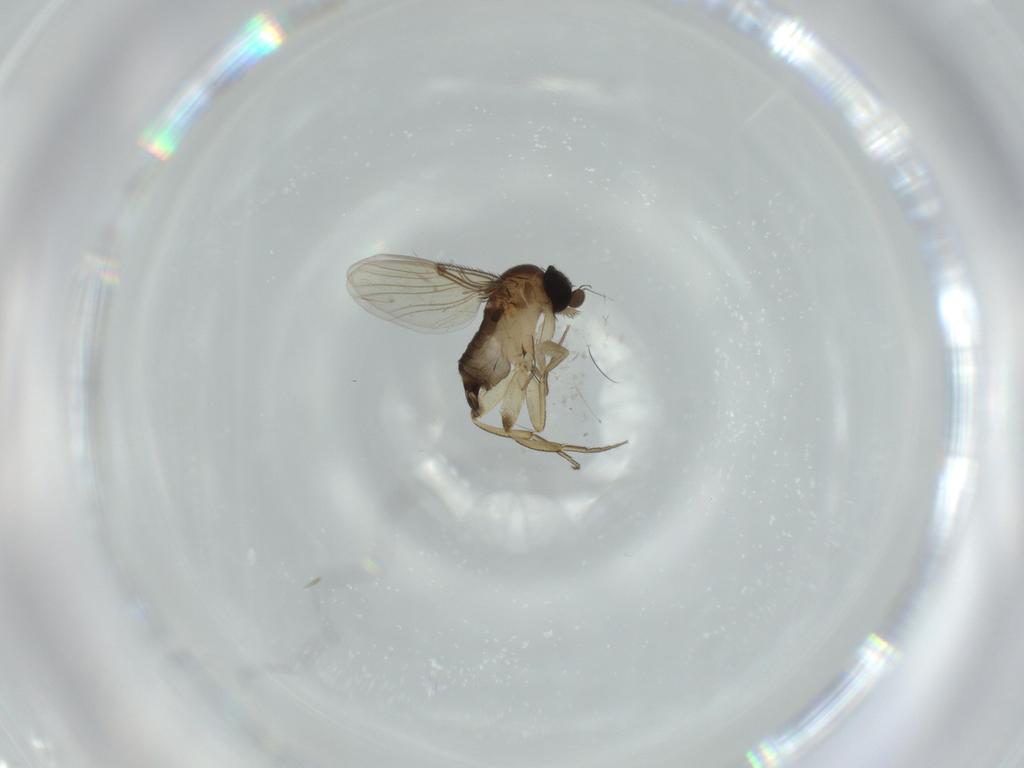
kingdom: Animalia
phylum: Arthropoda
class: Insecta
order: Diptera
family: Phoridae
